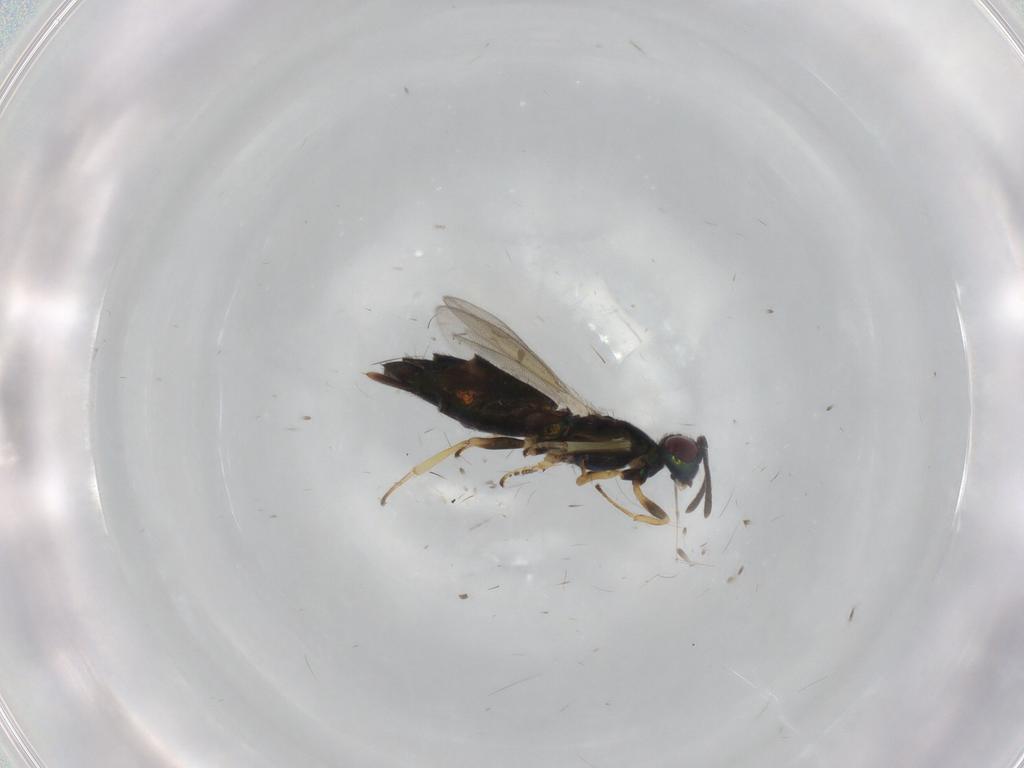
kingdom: Animalia
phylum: Arthropoda
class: Insecta
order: Hymenoptera
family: Eupelmidae
